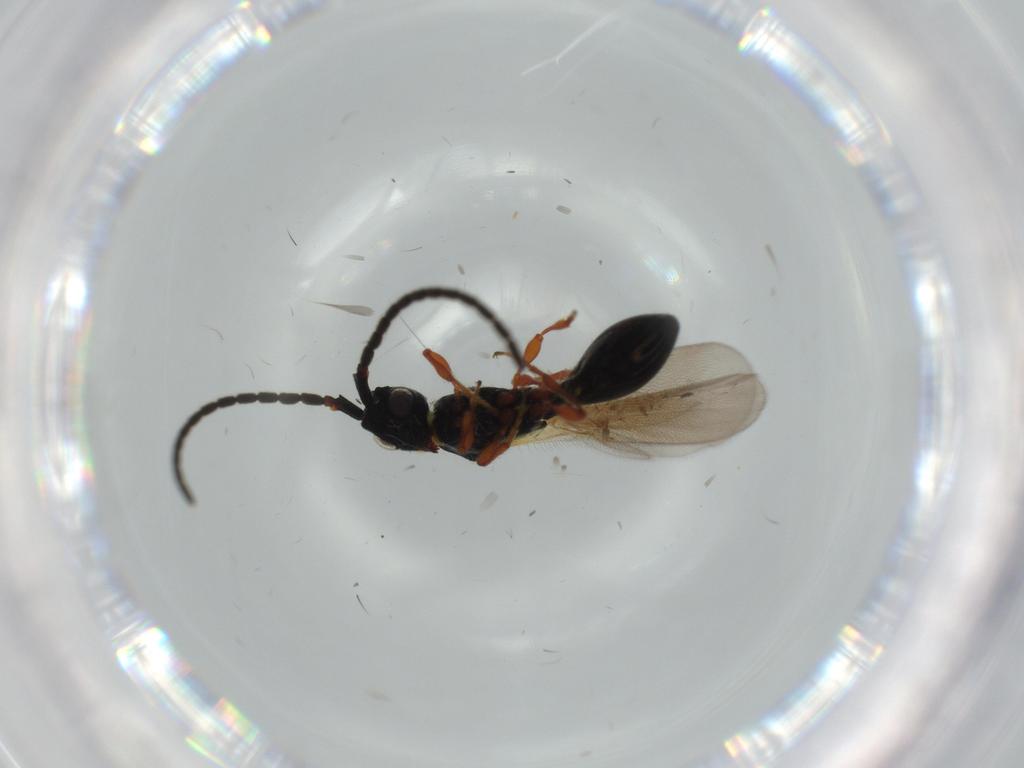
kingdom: Animalia
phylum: Arthropoda
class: Insecta
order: Hymenoptera
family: Diapriidae
